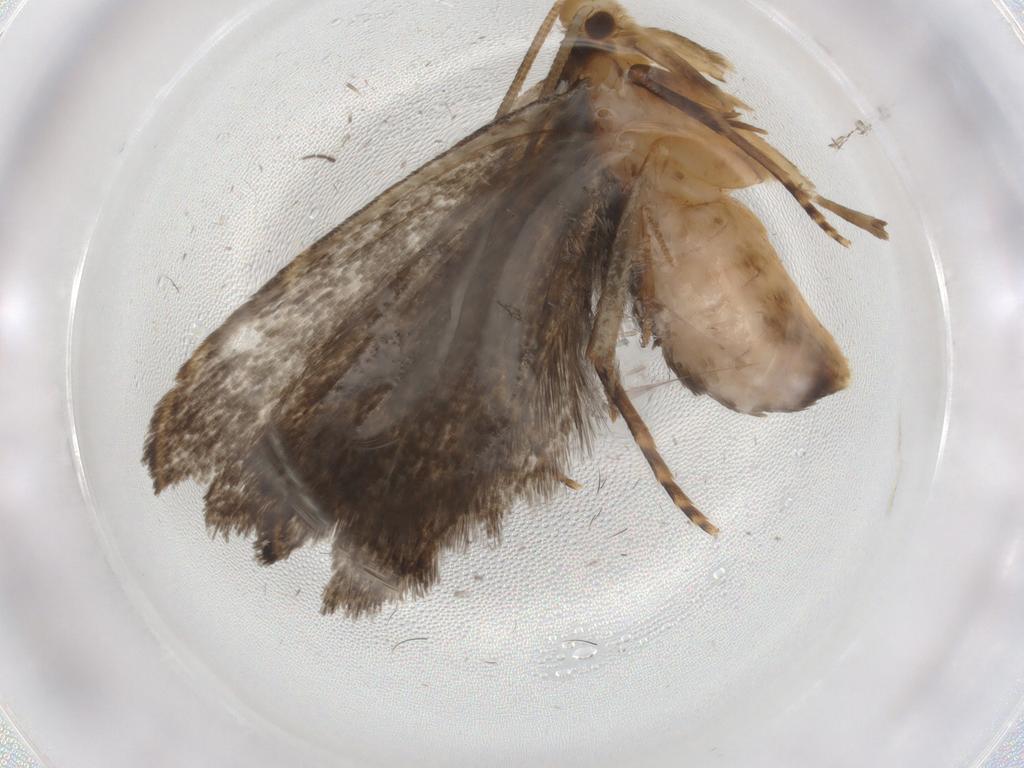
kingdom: Animalia
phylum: Arthropoda
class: Insecta
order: Lepidoptera
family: Dryadaulidae
